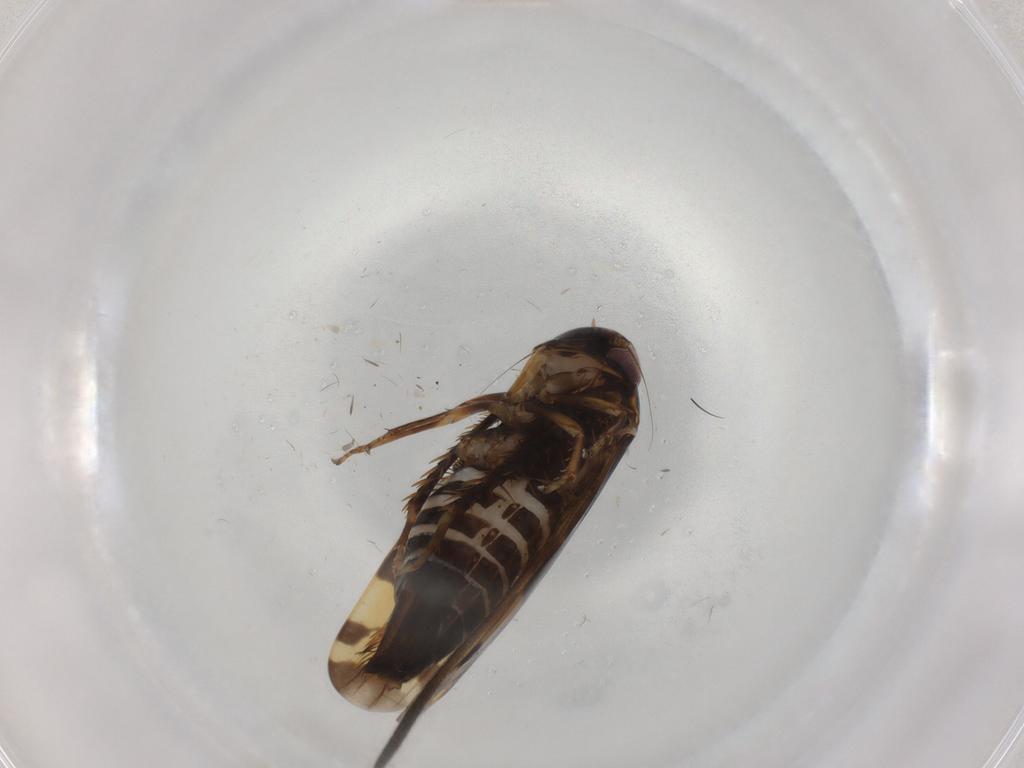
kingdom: Animalia
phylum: Arthropoda
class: Insecta
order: Hemiptera
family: Cicadellidae
